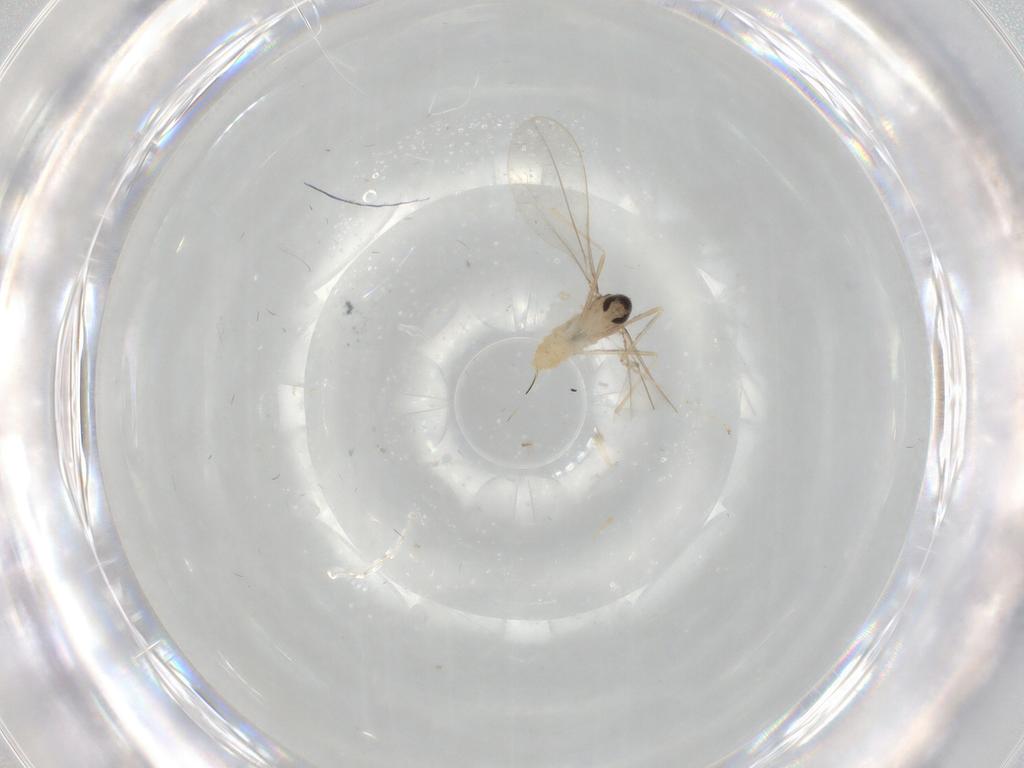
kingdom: Animalia
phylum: Arthropoda
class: Insecta
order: Diptera
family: Cecidomyiidae
